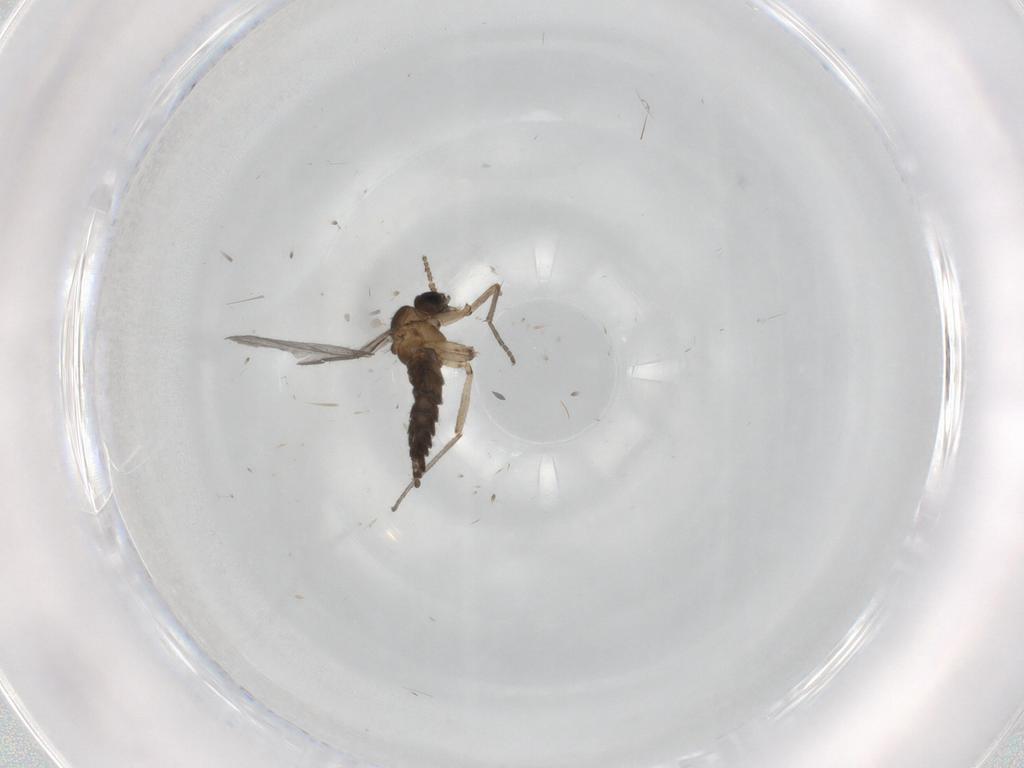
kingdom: Animalia
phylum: Arthropoda
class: Insecta
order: Diptera
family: Sciaridae
